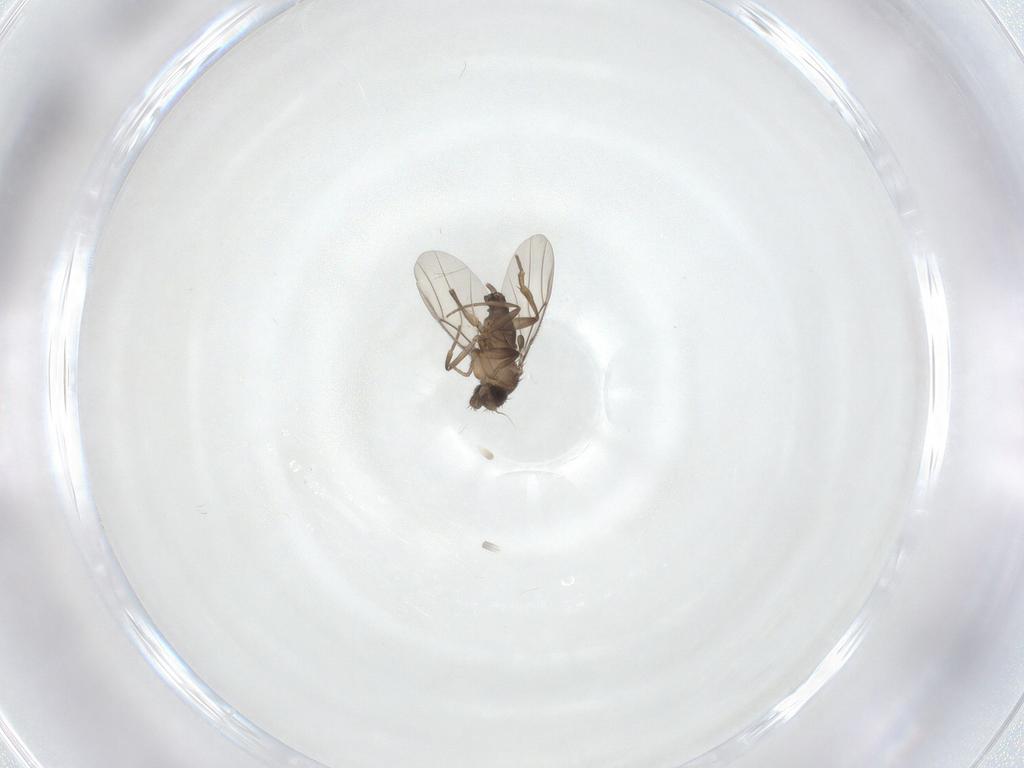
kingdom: Animalia
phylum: Arthropoda
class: Insecta
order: Diptera
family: Phoridae
